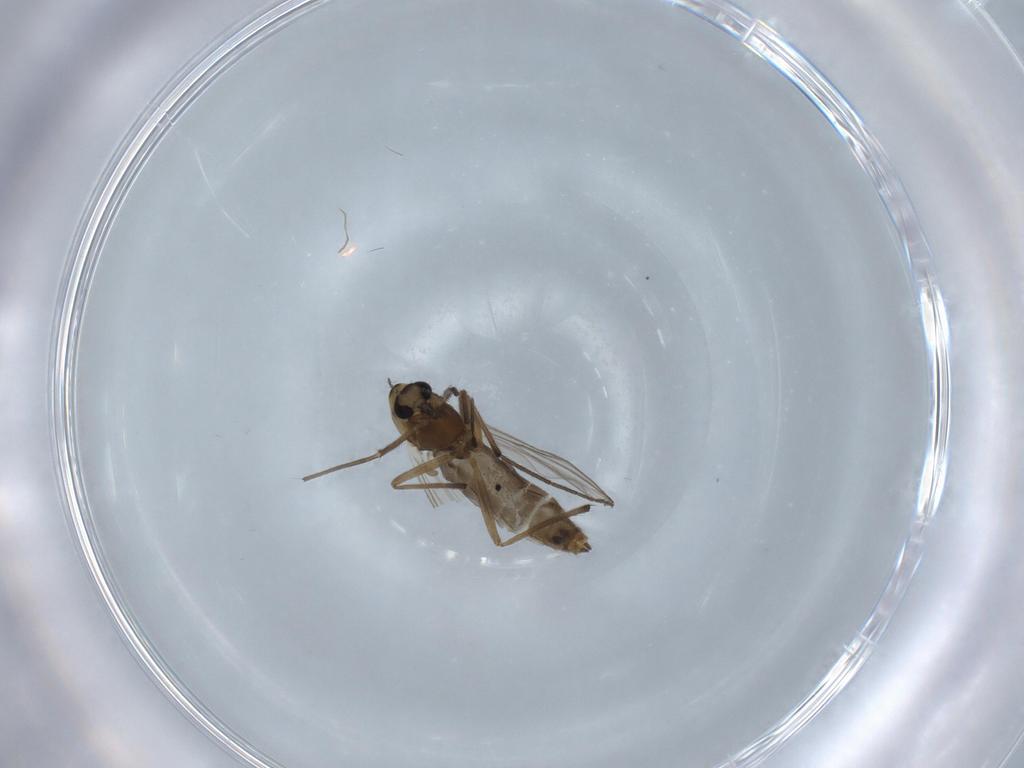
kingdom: Animalia
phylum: Arthropoda
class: Insecta
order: Diptera
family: Chironomidae
